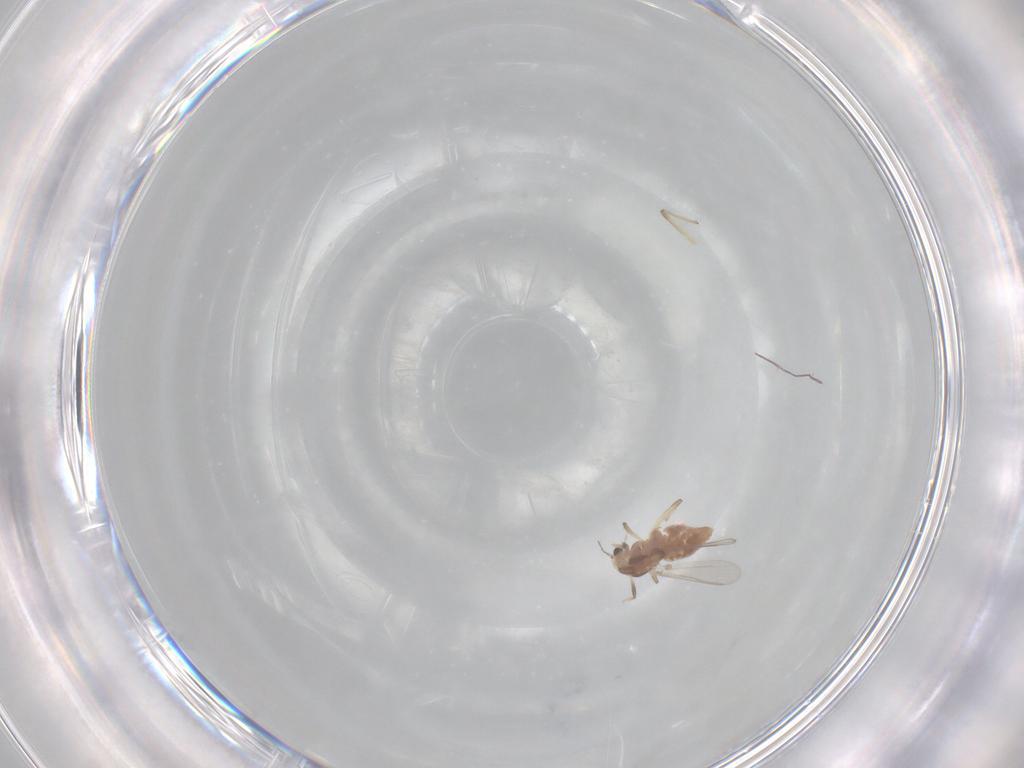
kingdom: Animalia
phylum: Arthropoda
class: Insecta
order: Diptera
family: Chironomidae
